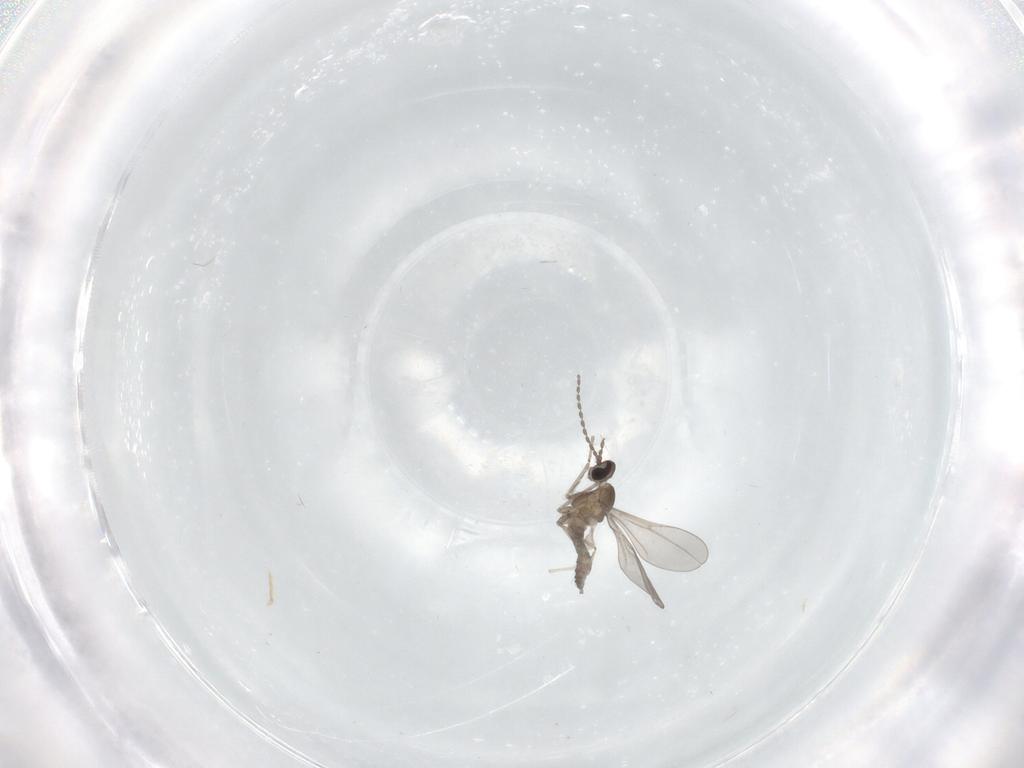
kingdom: Animalia
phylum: Arthropoda
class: Insecta
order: Diptera
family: Cecidomyiidae
